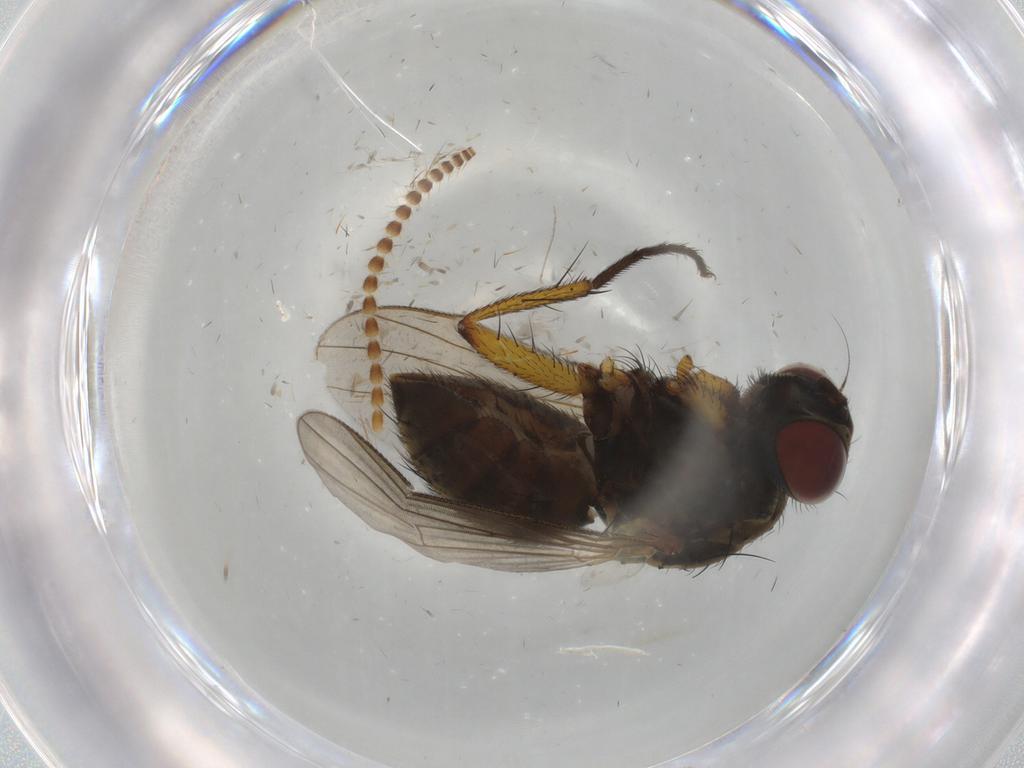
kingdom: Animalia
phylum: Arthropoda
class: Insecta
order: Diptera
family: Muscidae
